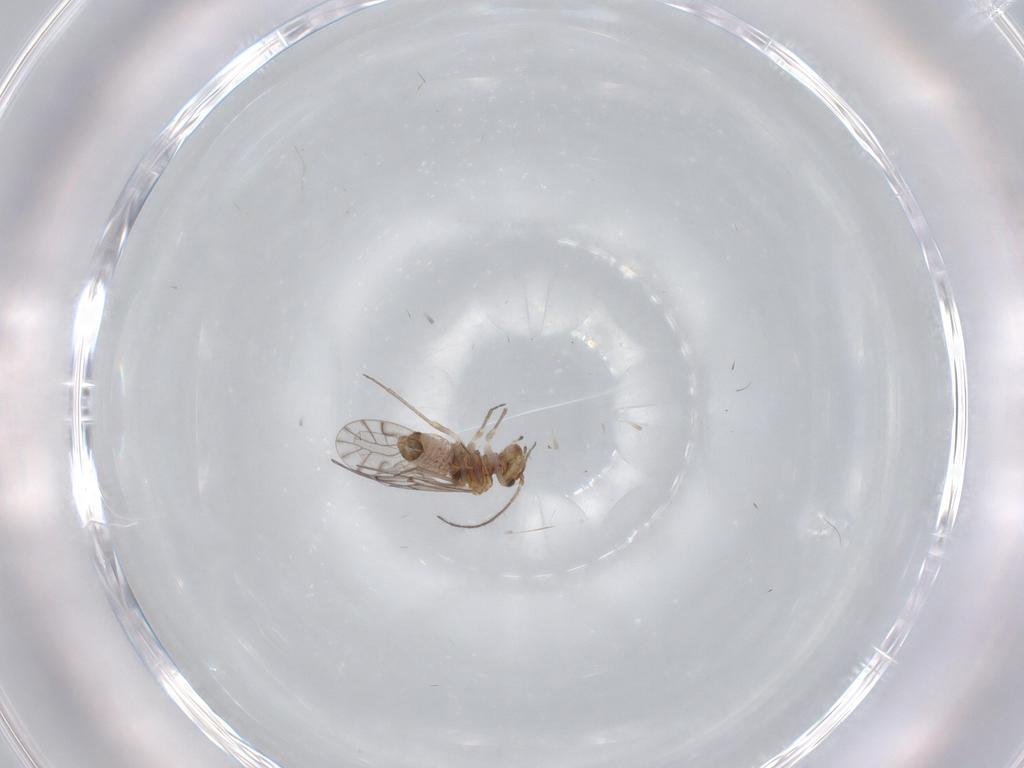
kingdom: Animalia
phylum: Arthropoda
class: Insecta
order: Psocodea
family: Lachesillidae
